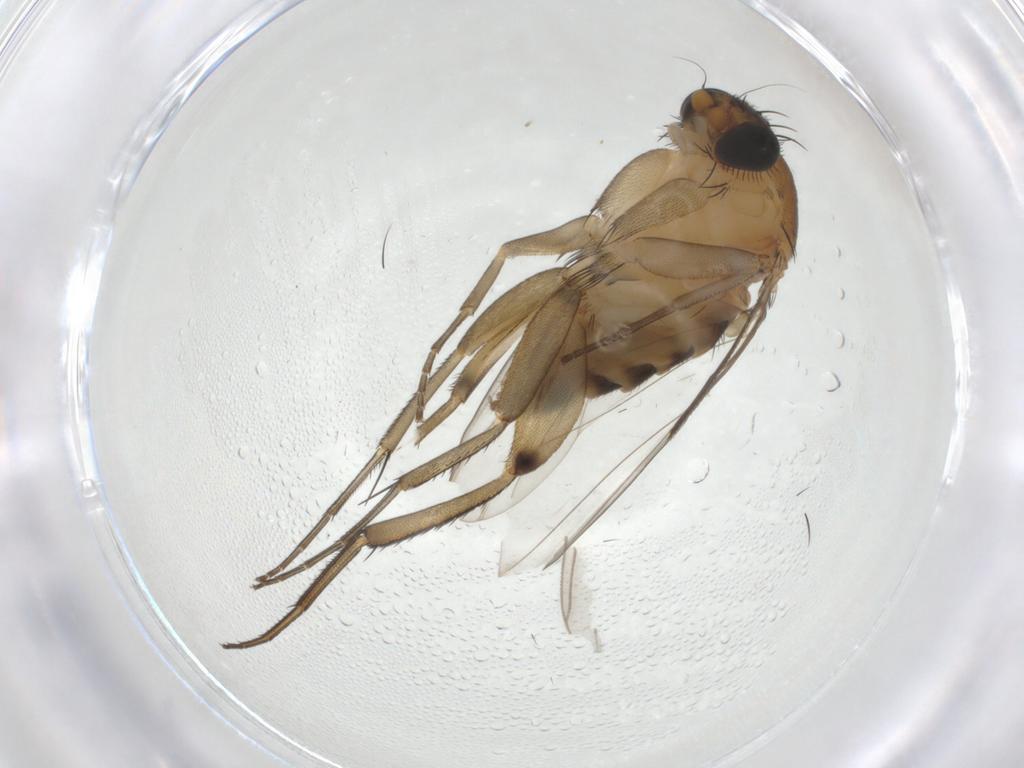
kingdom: Animalia
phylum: Arthropoda
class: Insecta
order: Diptera
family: Phoridae
